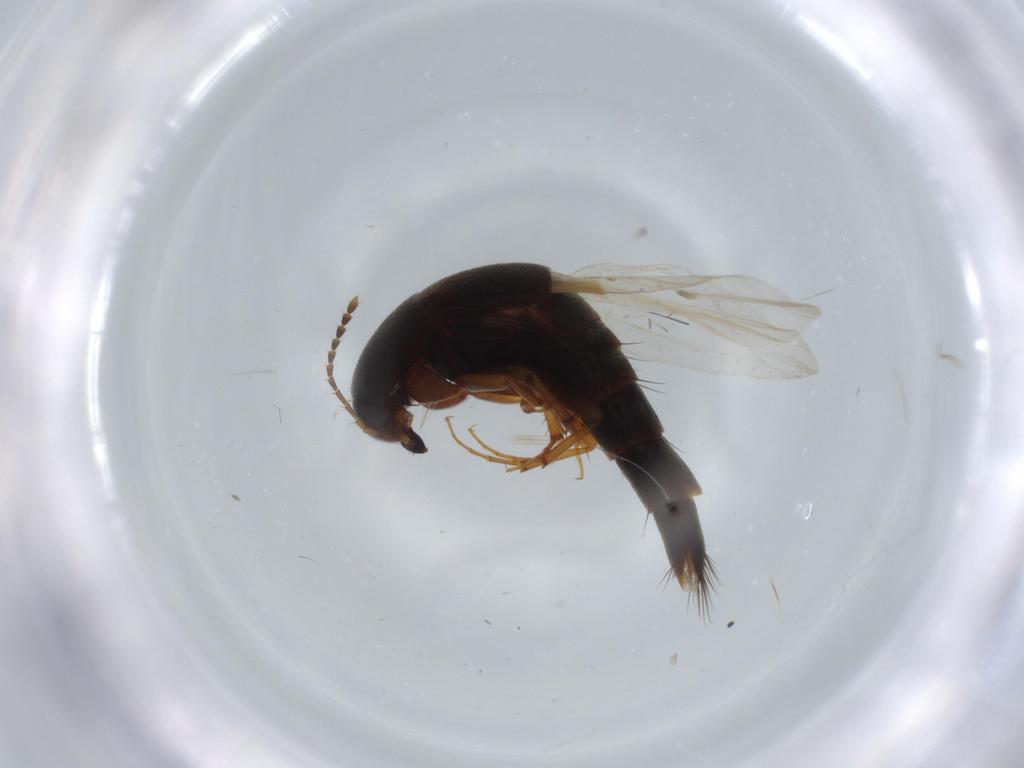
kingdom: Animalia
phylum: Arthropoda
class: Insecta
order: Coleoptera
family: Staphylinidae
